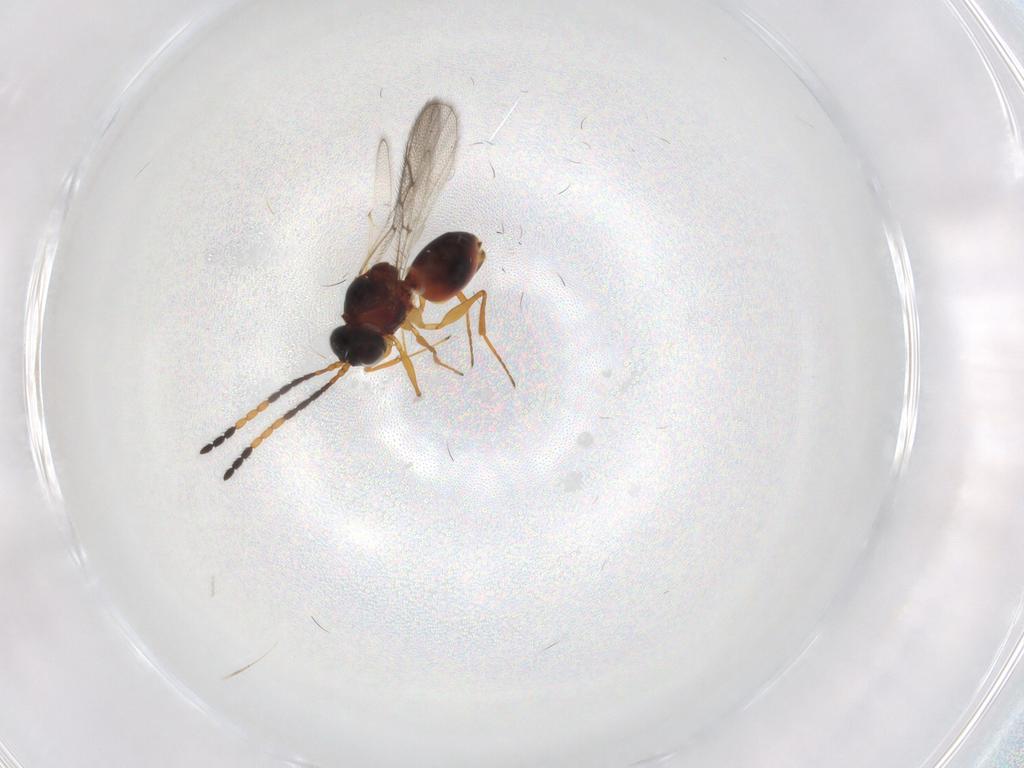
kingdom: Animalia
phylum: Arthropoda
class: Insecta
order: Hymenoptera
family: Figitidae
